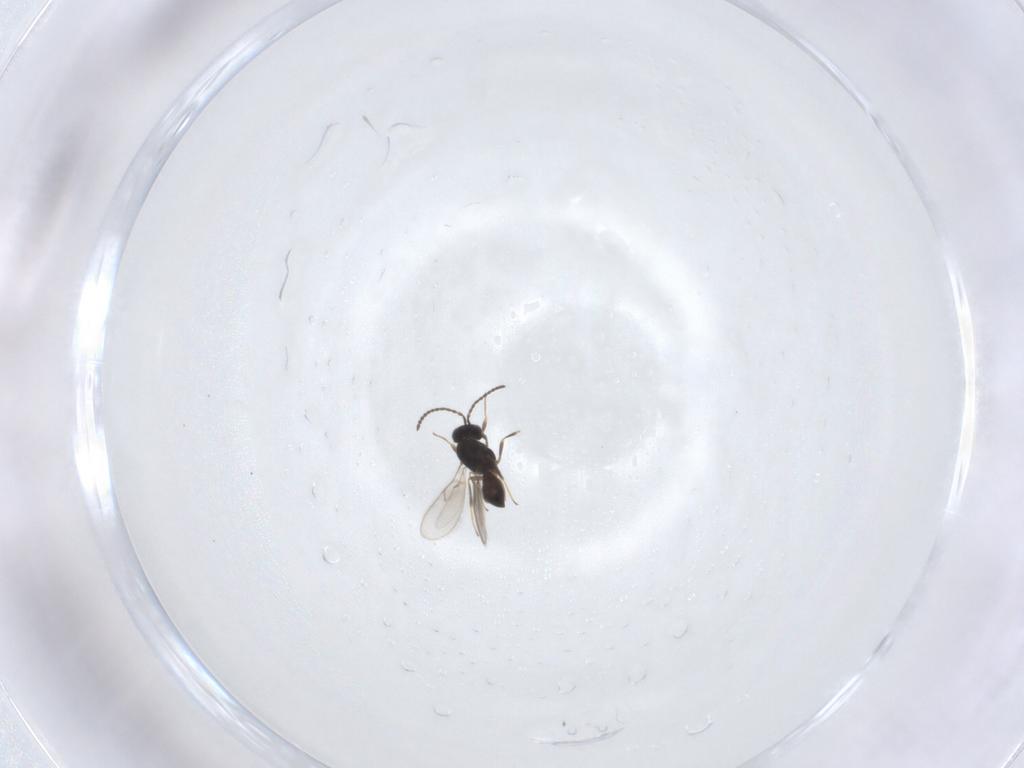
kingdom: Animalia
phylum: Arthropoda
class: Insecta
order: Hymenoptera
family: Scelionidae
